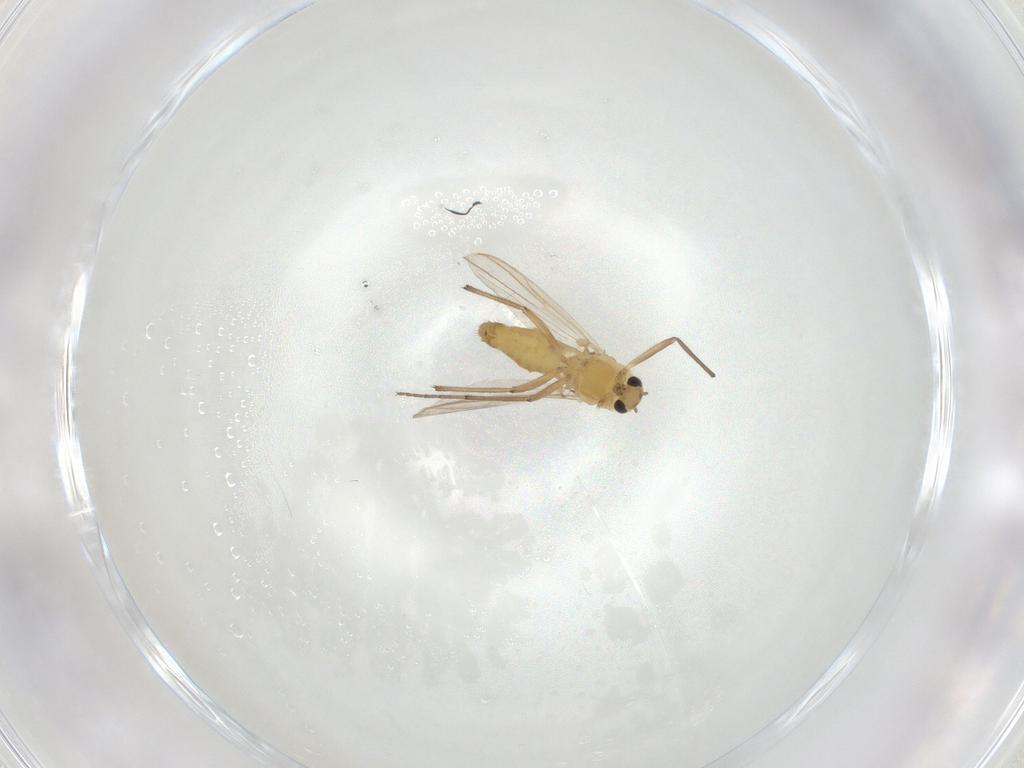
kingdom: Animalia
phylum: Arthropoda
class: Insecta
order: Diptera
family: Chironomidae
